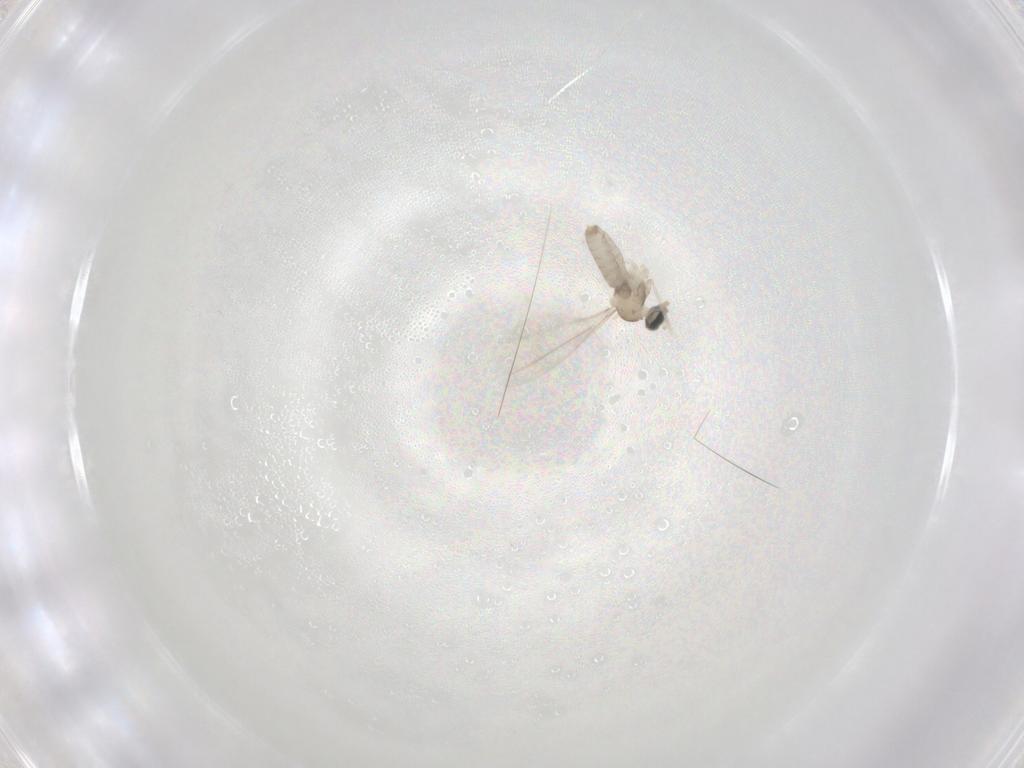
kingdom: Animalia
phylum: Arthropoda
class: Insecta
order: Diptera
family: Cecidomyiidae
